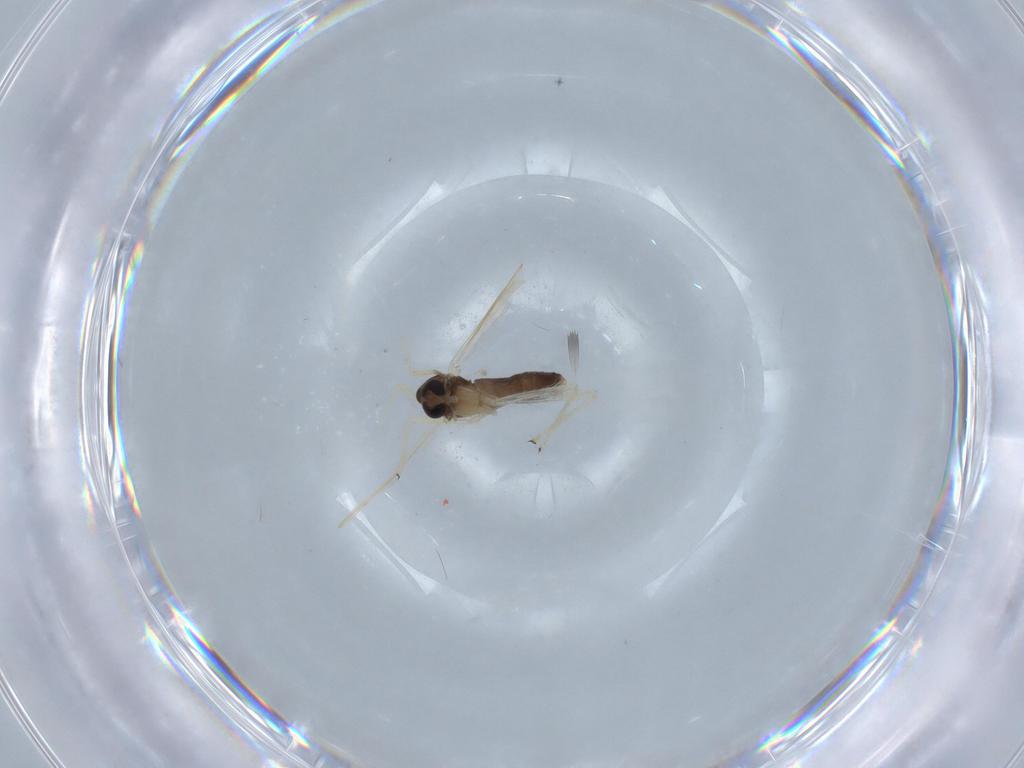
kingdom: Animalia
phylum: Arthropoda
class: Insecta
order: Diptera
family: Chironomidae
